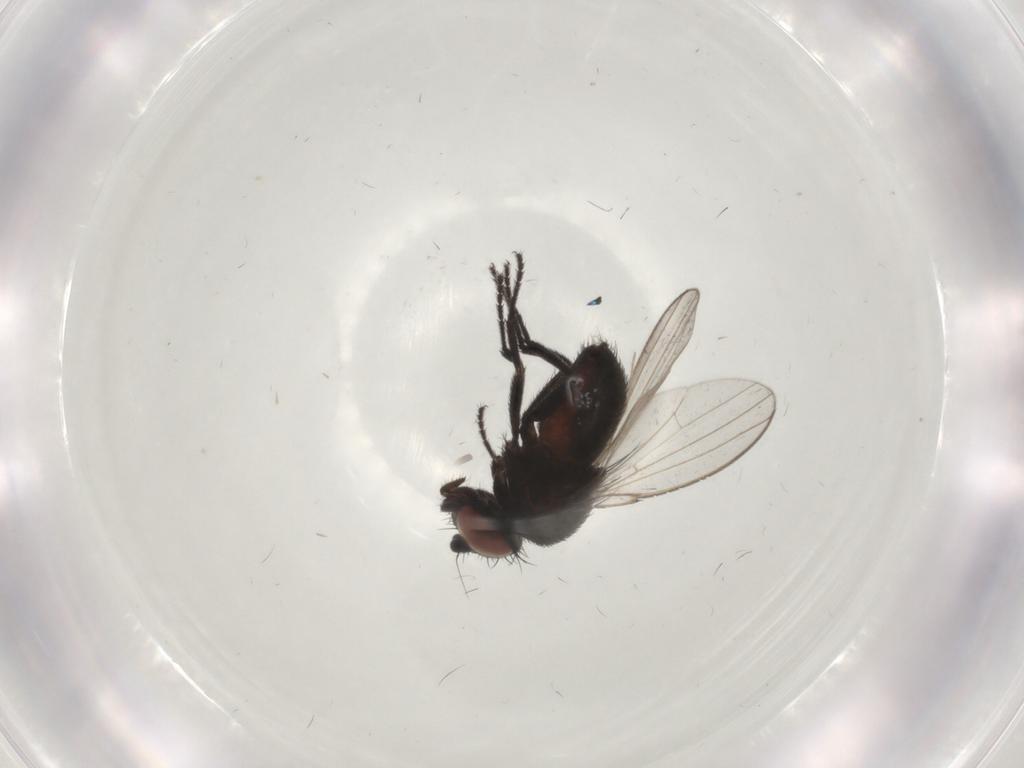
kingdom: Animalia
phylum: Arthropoda
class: Insecta
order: Diptera
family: Milichiidae
